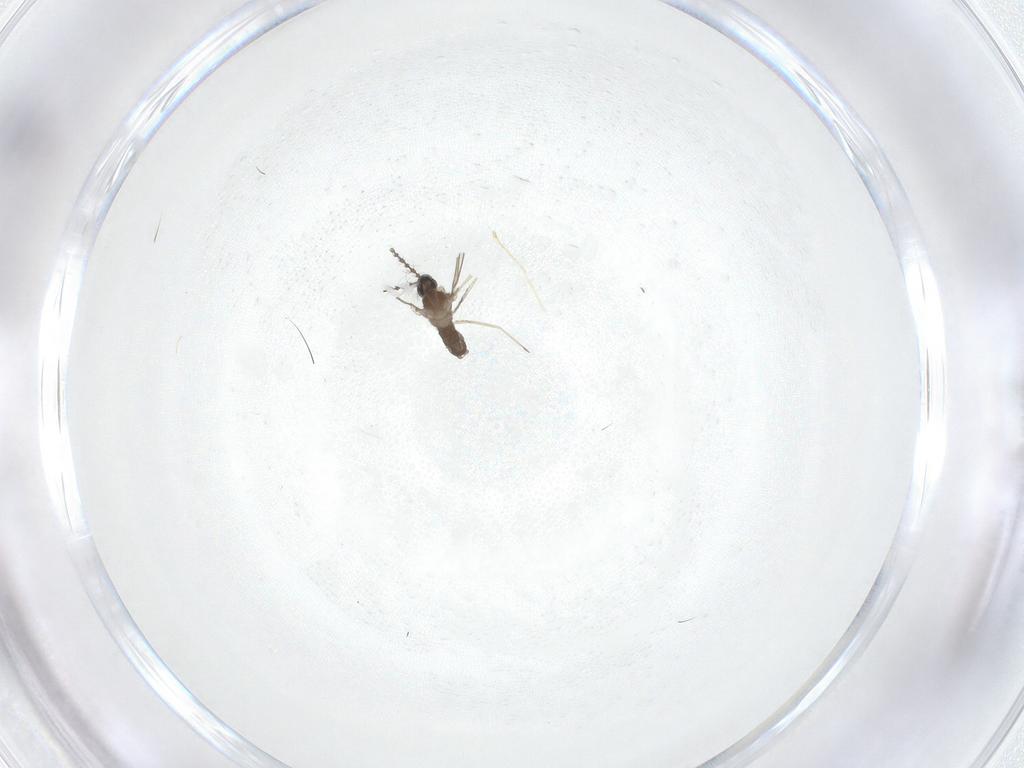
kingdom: Animalia
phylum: Arthropoda
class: Insecta
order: Diptera
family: Cecidomyiidae
